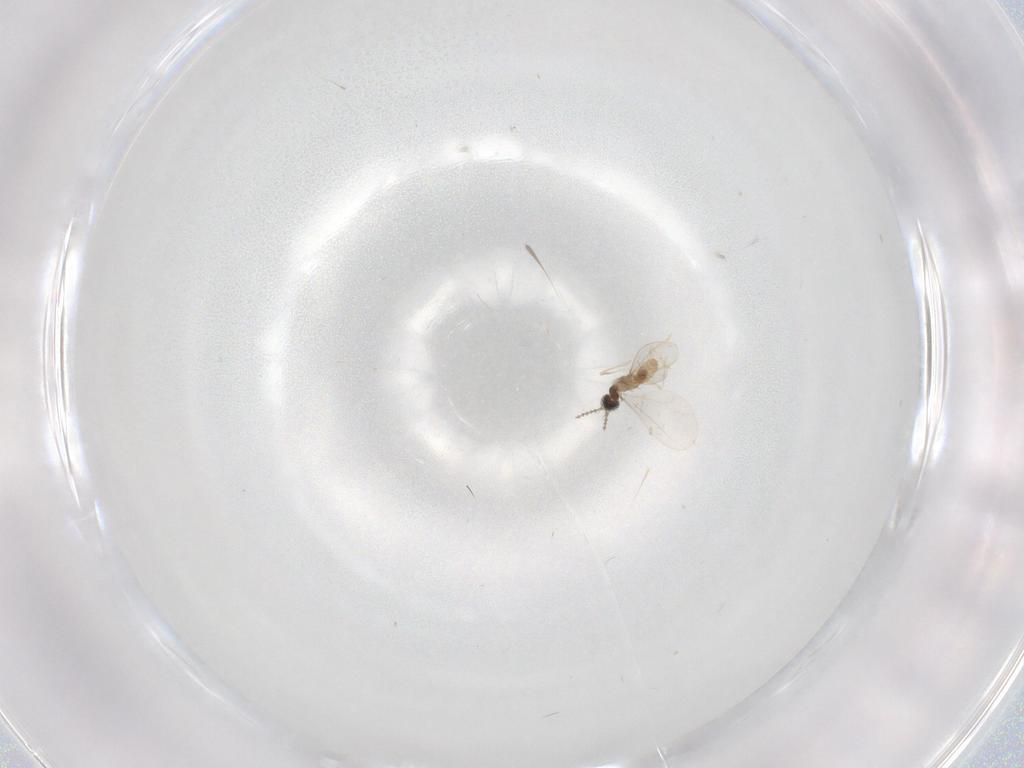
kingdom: Animalia
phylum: Arthropoda
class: Insecta
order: Diptera
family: Cecidomyiidae
